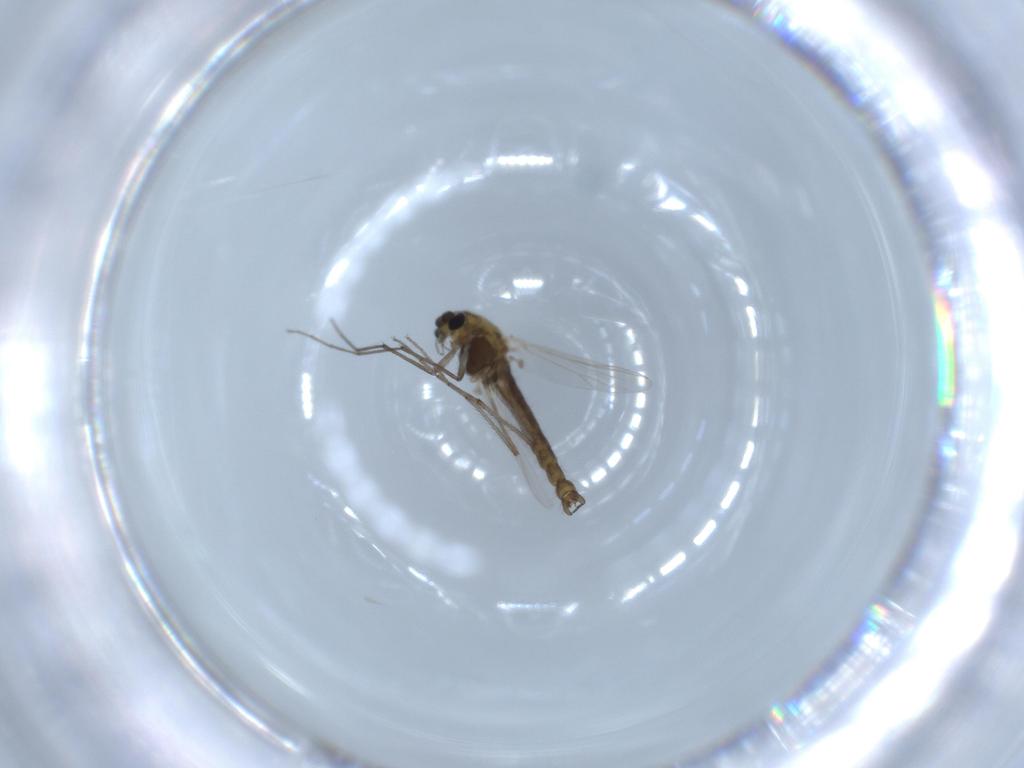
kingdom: Animalia
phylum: Arthropoda
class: Insecta
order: Diptera
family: Chironomidae
